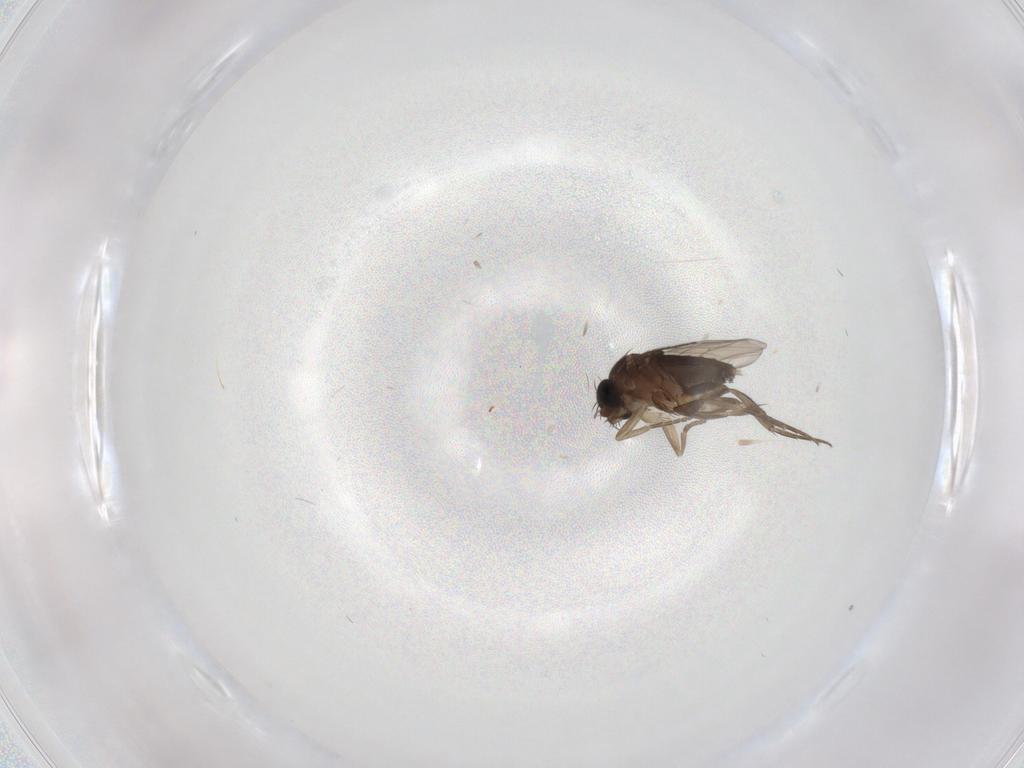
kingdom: Animalia
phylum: Arthropoda
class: Insecta
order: Diptera
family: Phoridae
